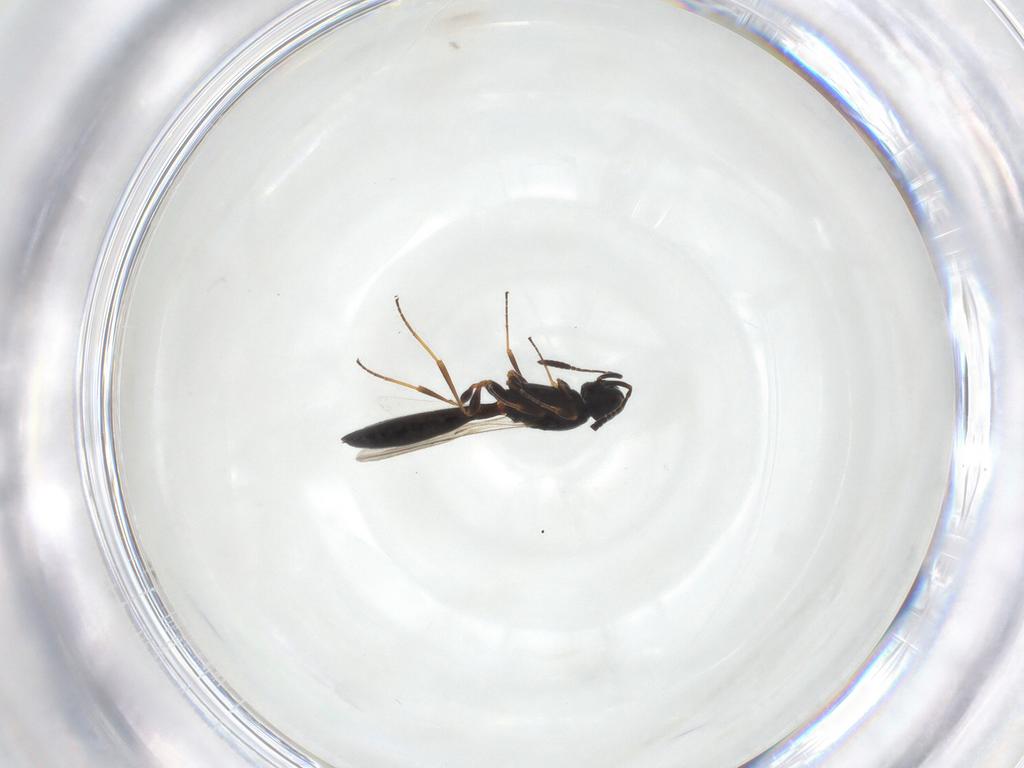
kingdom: Animalia
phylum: Arthropoda
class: Insecta
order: Hymenoptera
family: Scelionidae
